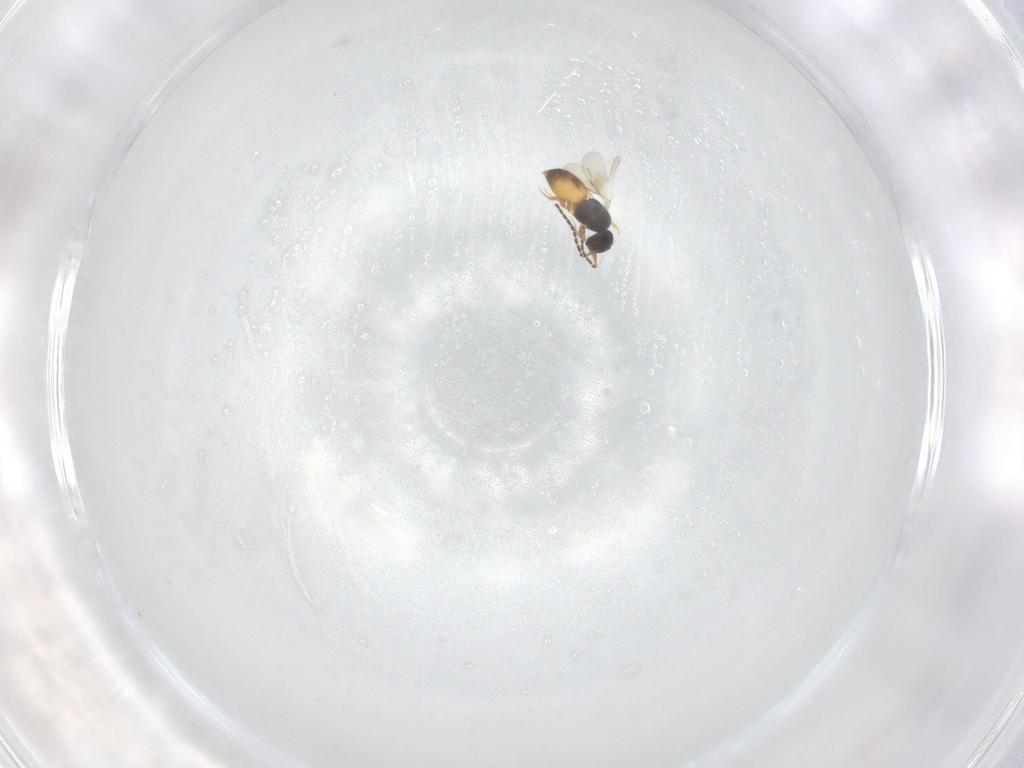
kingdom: Animalia
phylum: Arthropoda
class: Insecta
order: Hymenoptera
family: Ceraphronidae
